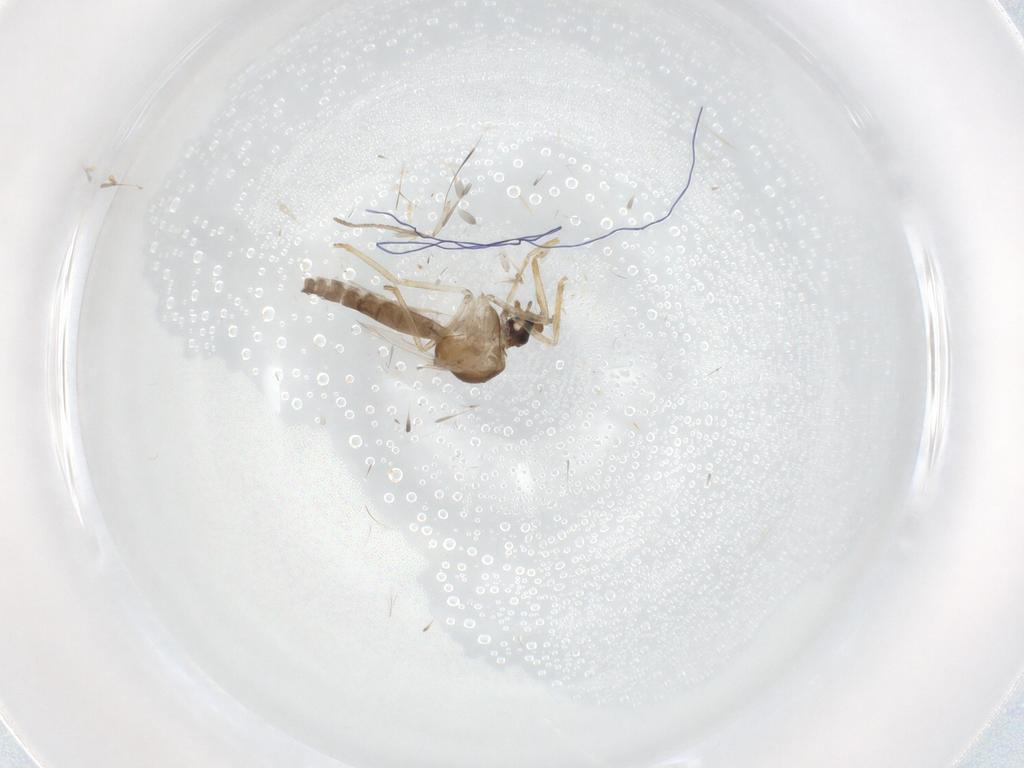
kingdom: Animalia
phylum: Arthropoda
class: Insecta
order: Diptera
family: Ceratopogonidae
